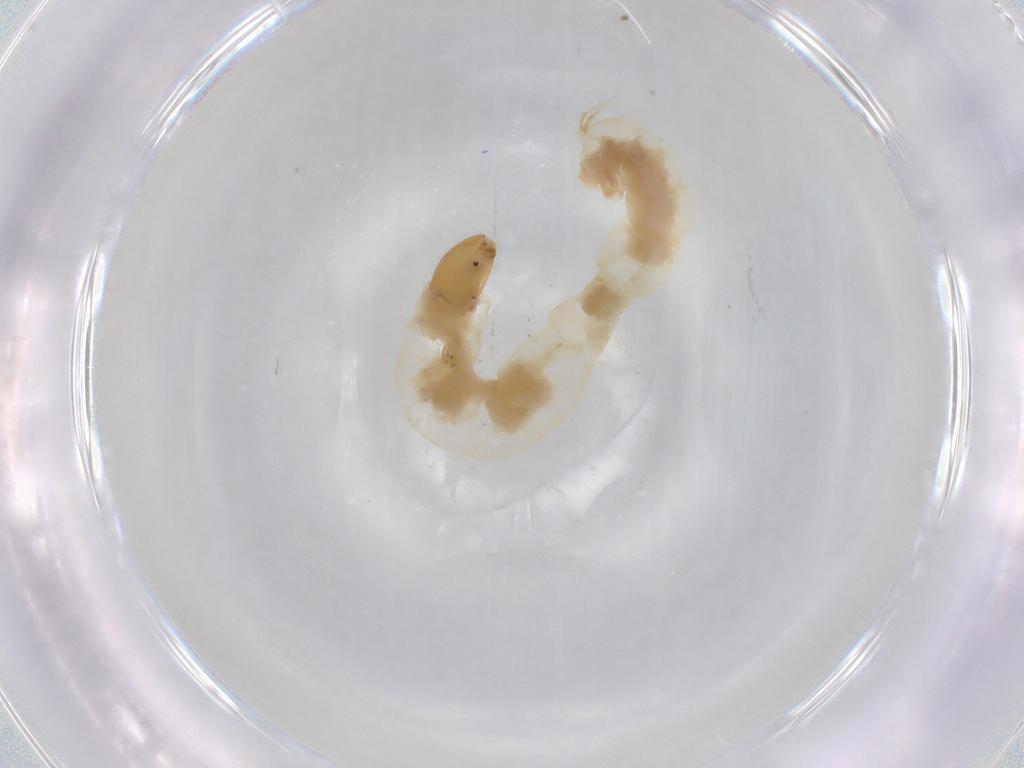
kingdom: Animalia
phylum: Arthropoda
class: Insecta
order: Diptera
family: Chironomidae
